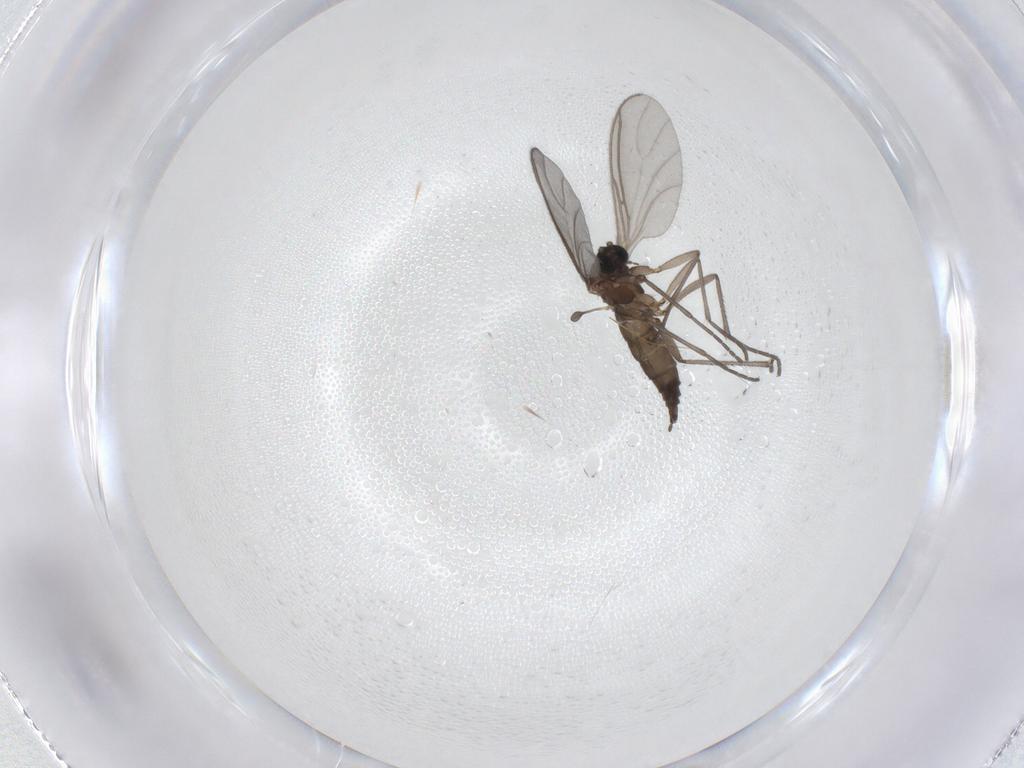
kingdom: Animalia
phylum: Arthropoda
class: Insecta
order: Diptera
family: Sciaridae
